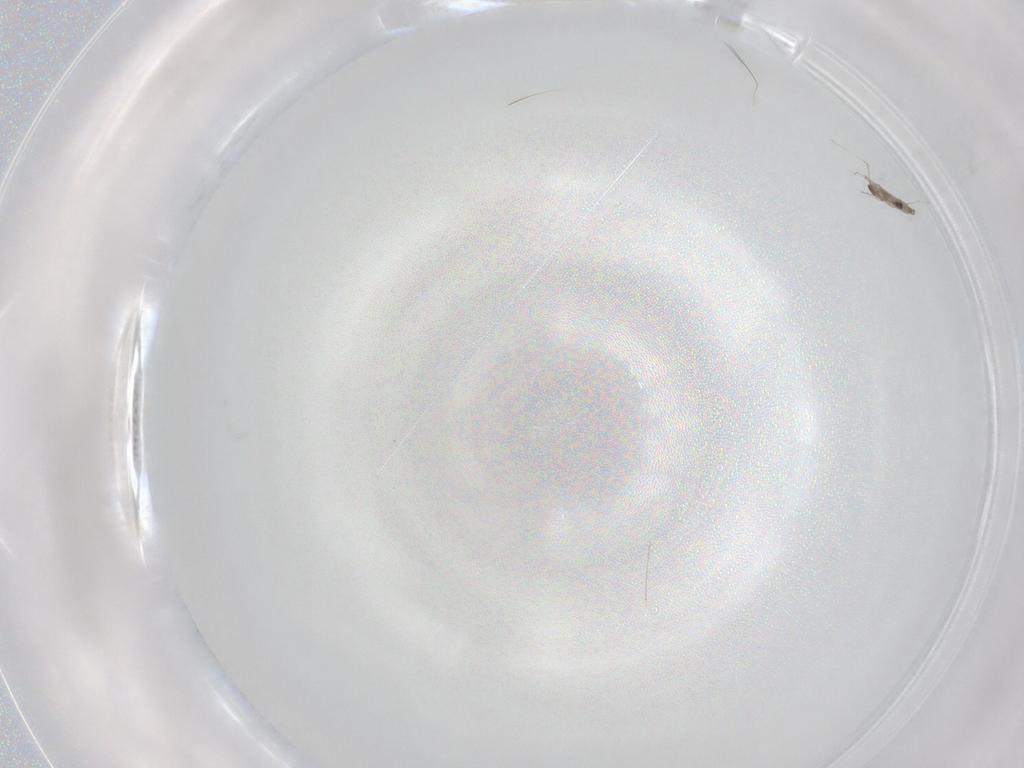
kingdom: Animalia
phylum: Arthropoda
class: Insecta
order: Diptera
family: Cecidomyiidae
